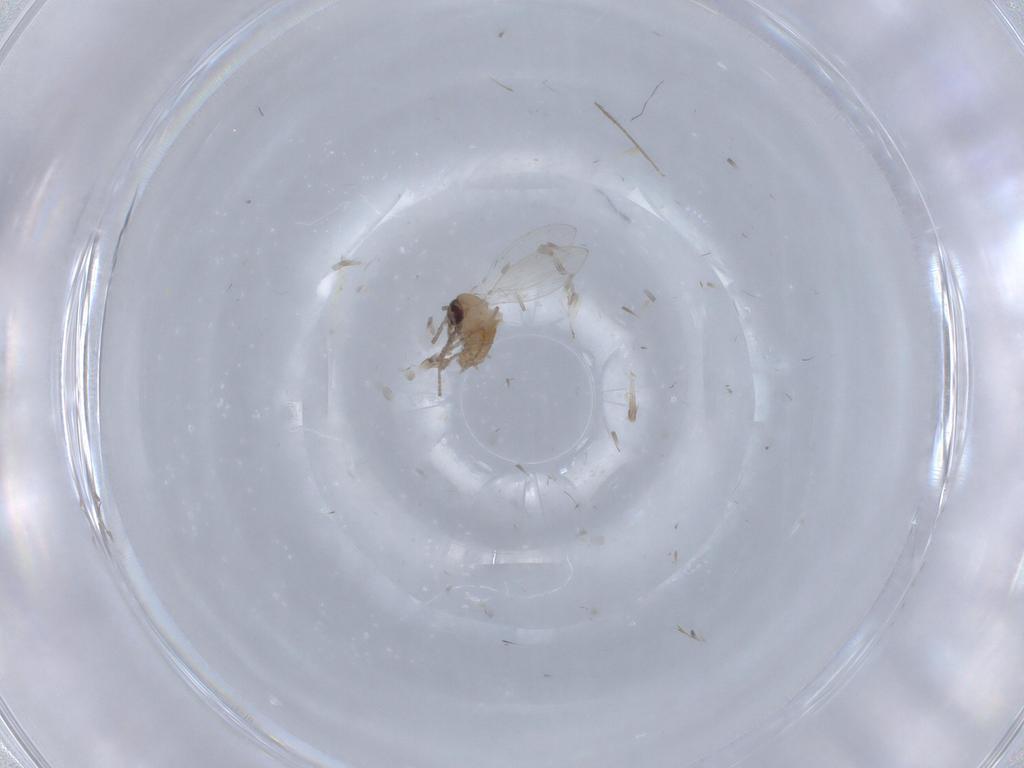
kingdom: Animalia
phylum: Arthropoda
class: Insecta
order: Diptera
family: Psychodidae
